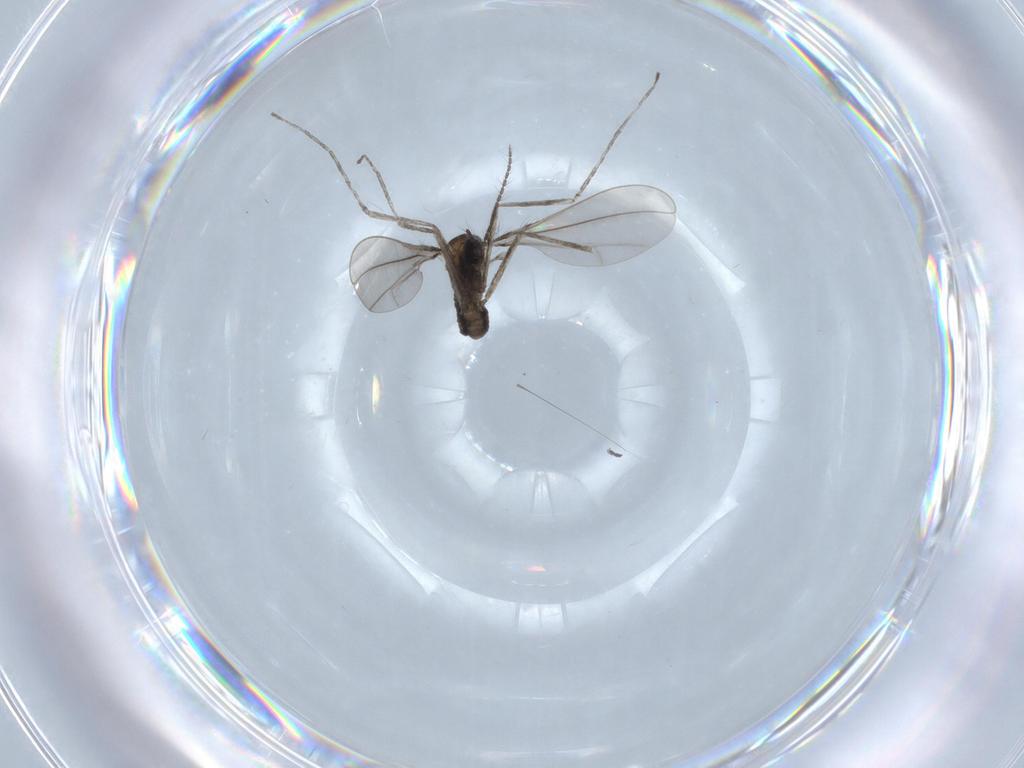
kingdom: Animalia
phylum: Arthropoda
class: Insecta
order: Diptera
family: Cecidomyiidae
